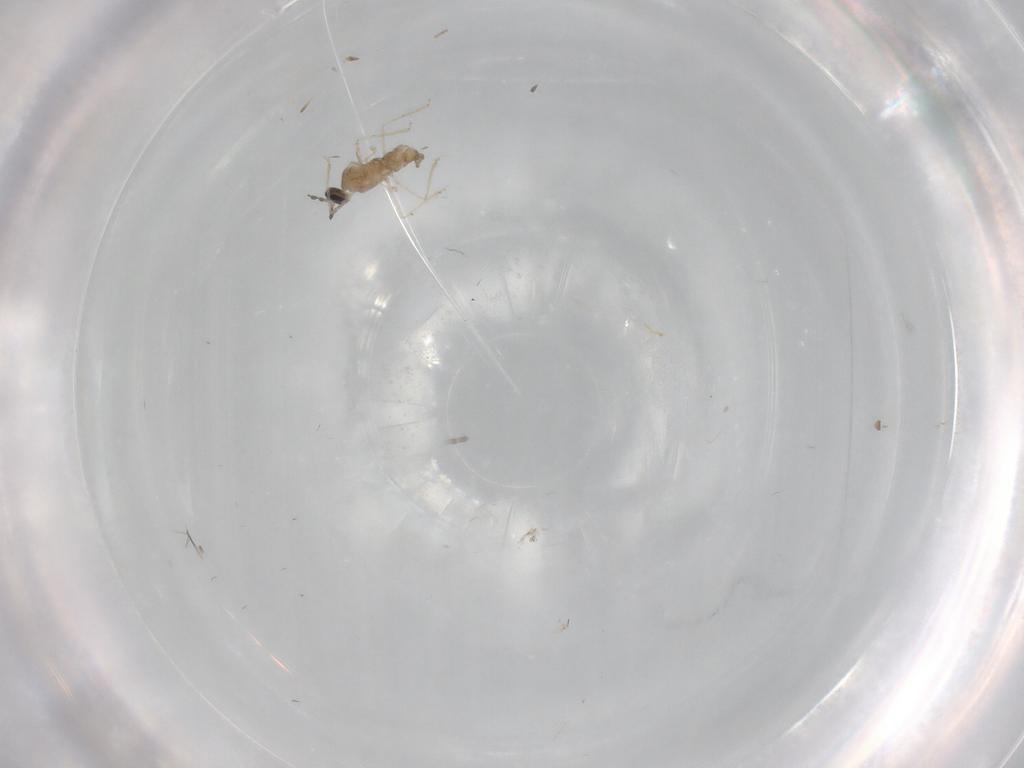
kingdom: Animalia
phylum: Arthropoda
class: Insecta
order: Diptera
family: Cecidomyiidae
